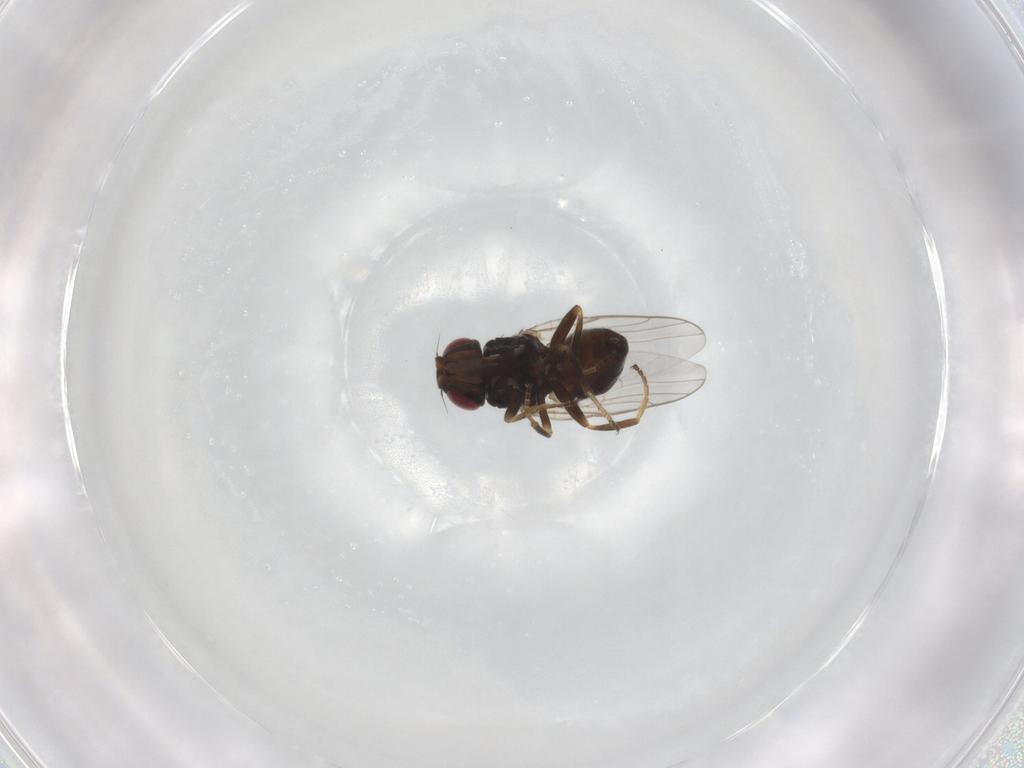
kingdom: Animalia
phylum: Arthropoda
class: Insecta
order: Diptera
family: Chloropidae
